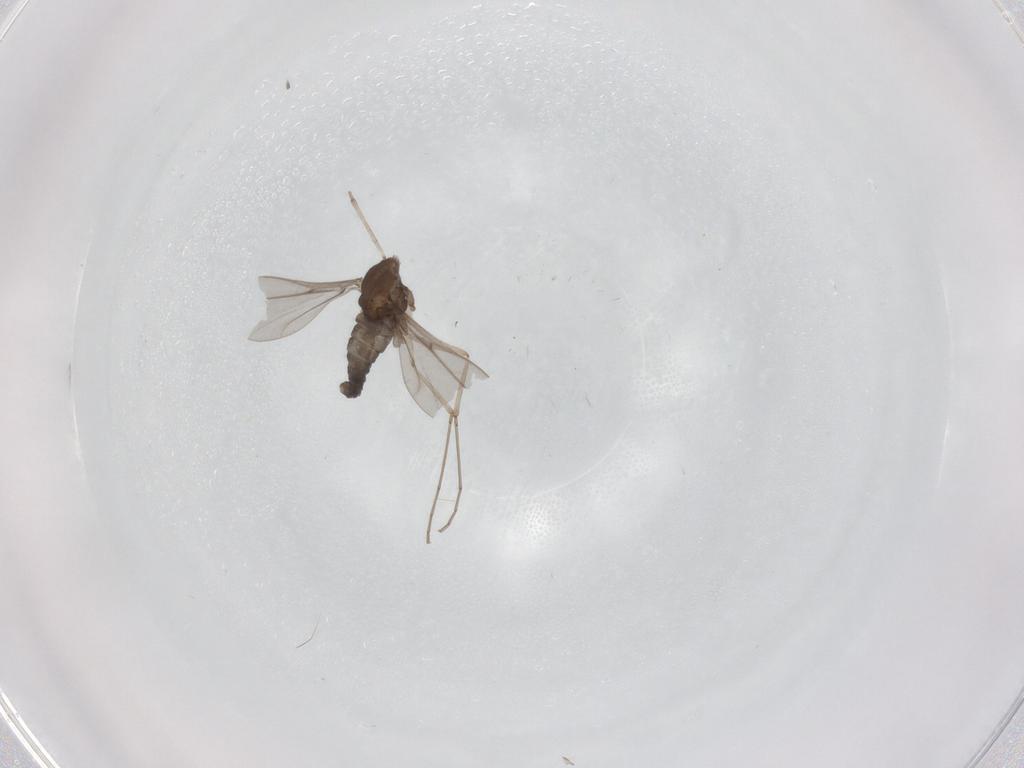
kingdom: Animalia
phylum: Arthropoda
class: Insecta
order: Diptera
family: Cecidomyiidae
